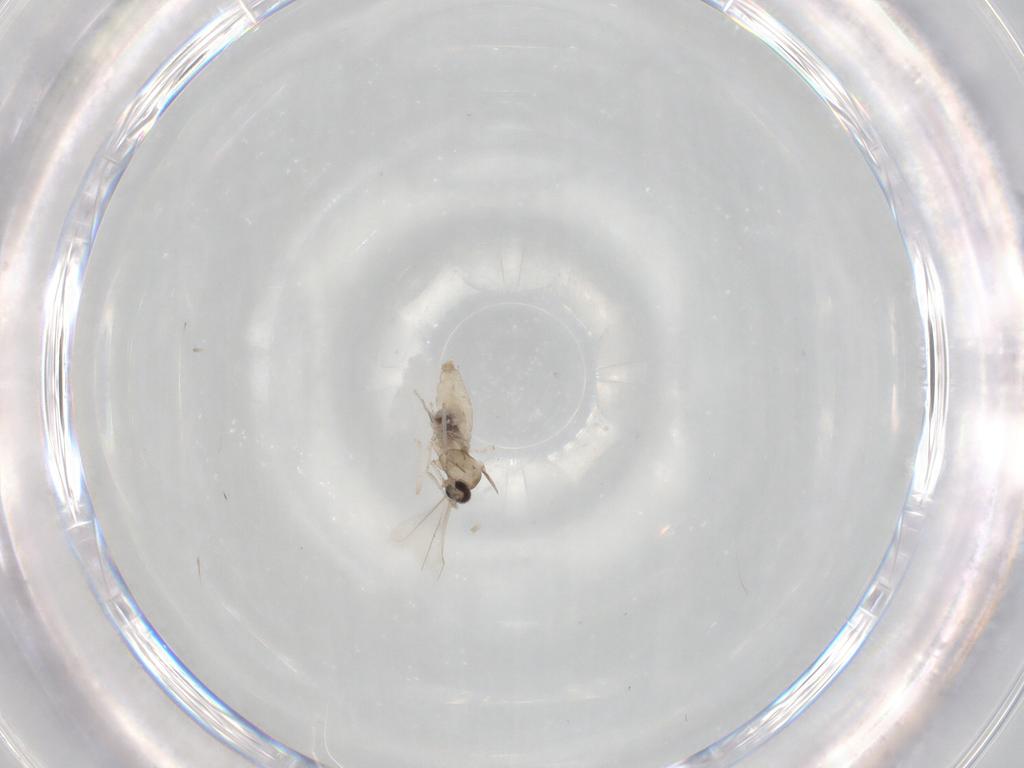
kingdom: Animalia
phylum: Arthropoda
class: Insecta
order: Diptera
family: Cecidomyiidae
